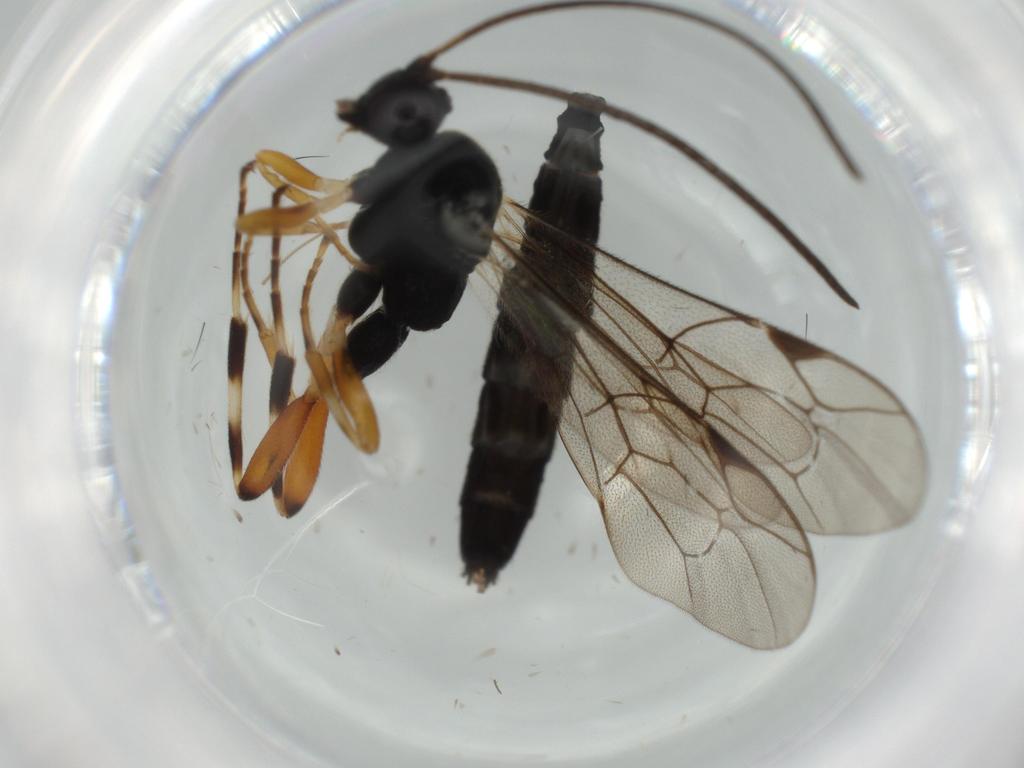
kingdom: Animalia
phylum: Arthropoda
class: Insecta
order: Hymenoptera
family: Ichneumonidae
